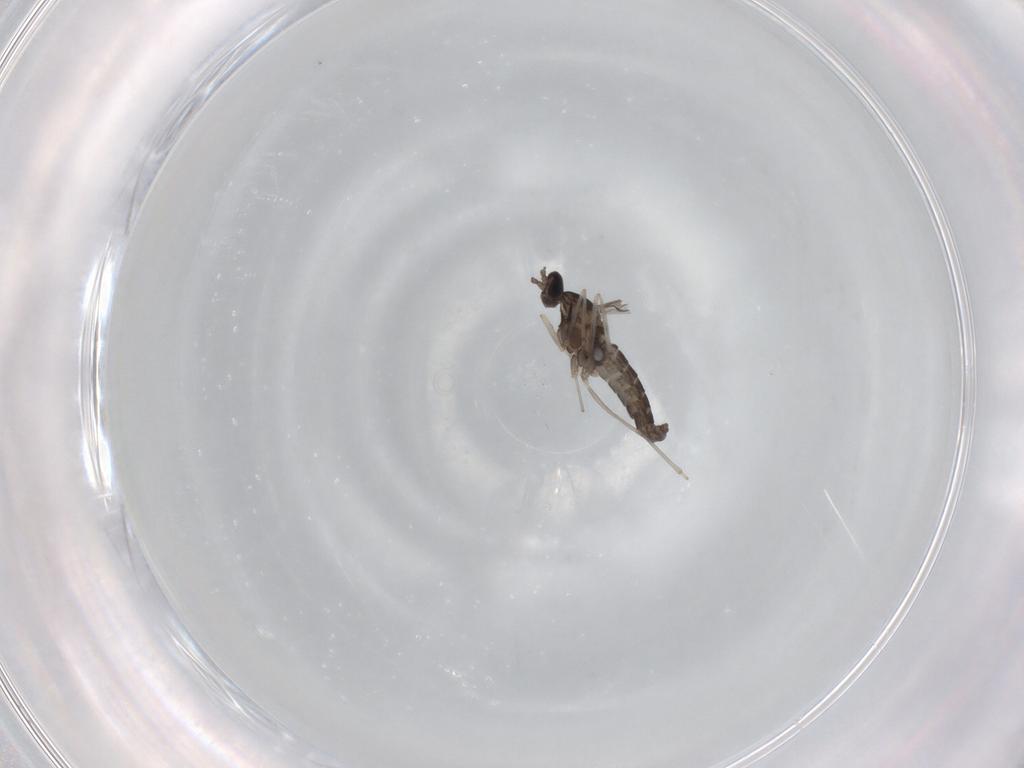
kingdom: Animalia
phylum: Arthropoda
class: Insecta
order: Diptera
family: Cecidomyiidae
